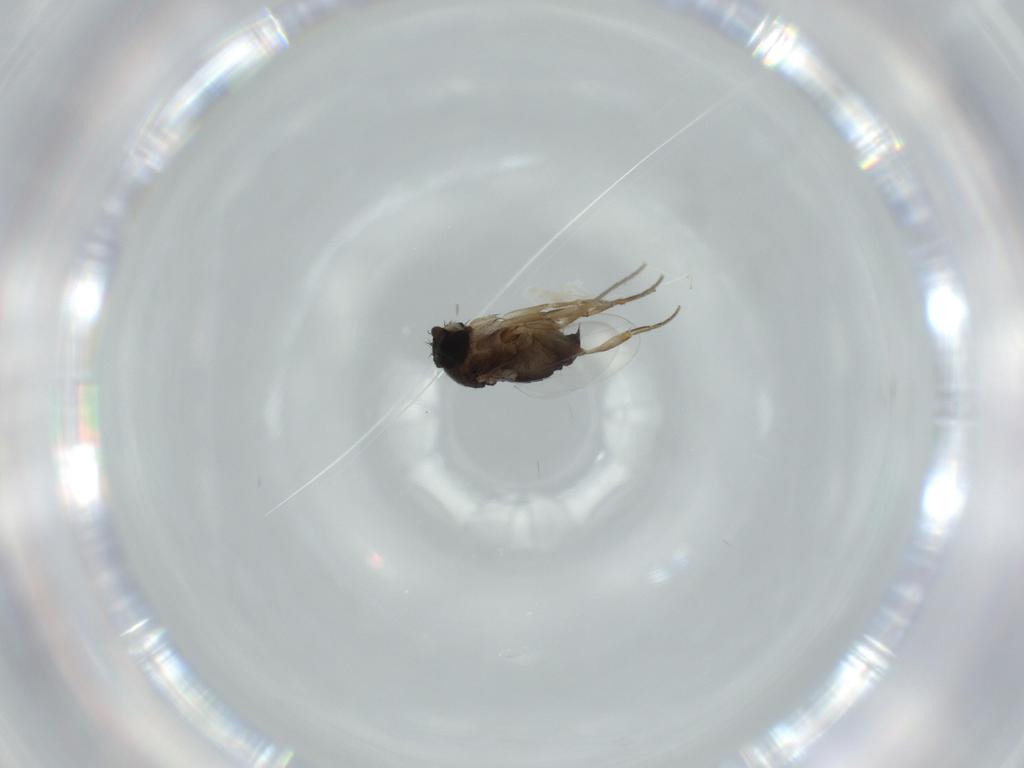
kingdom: Animalia
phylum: Arthropoda
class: Insecta
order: Diptera
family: Phoridae
